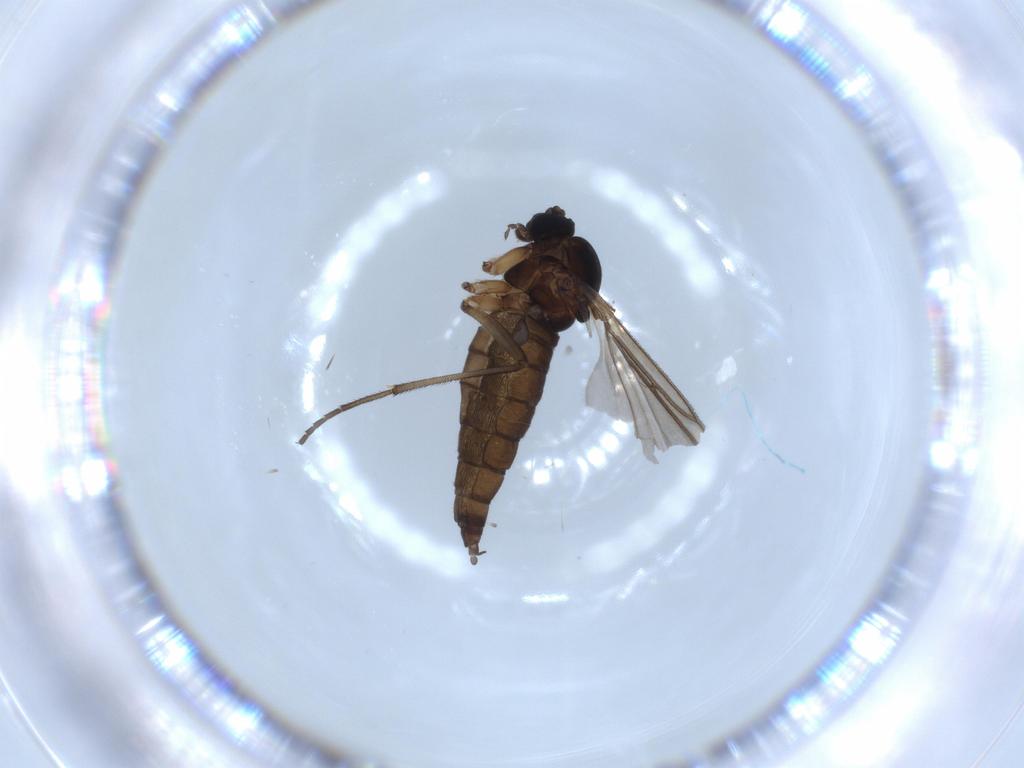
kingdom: Animalia
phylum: Arthropoda
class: Insecta
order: Diptera
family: Sciaridae
